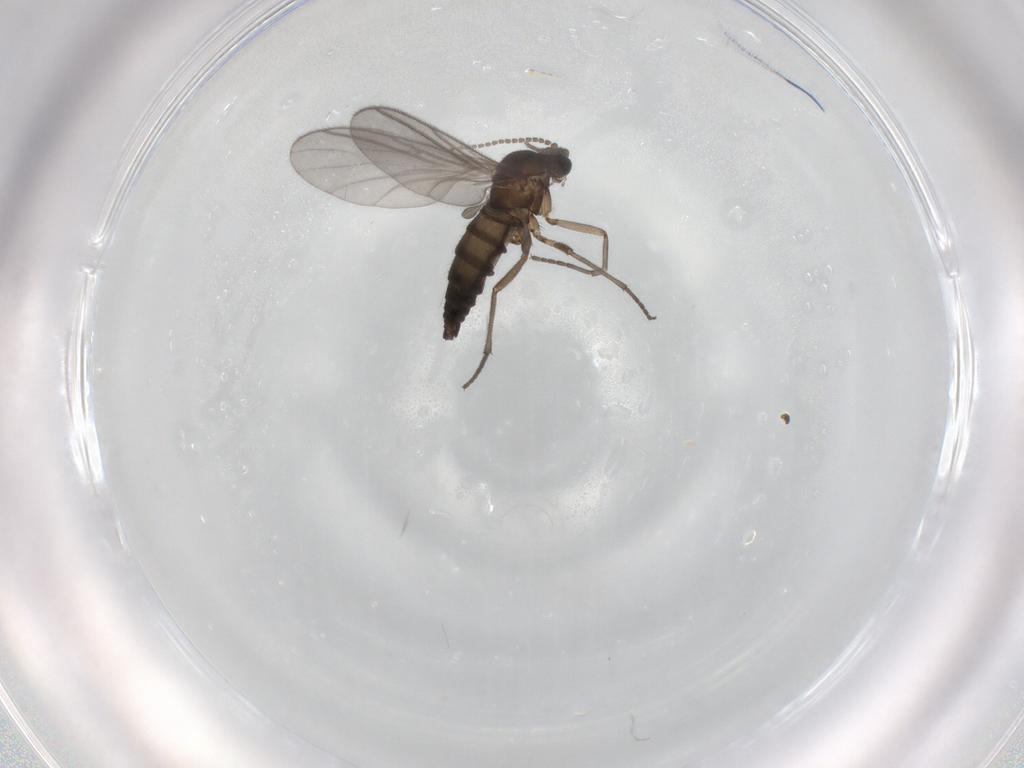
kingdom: Animalia
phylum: Arthropoda
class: Insecta
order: Diptera
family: Sciaridae
